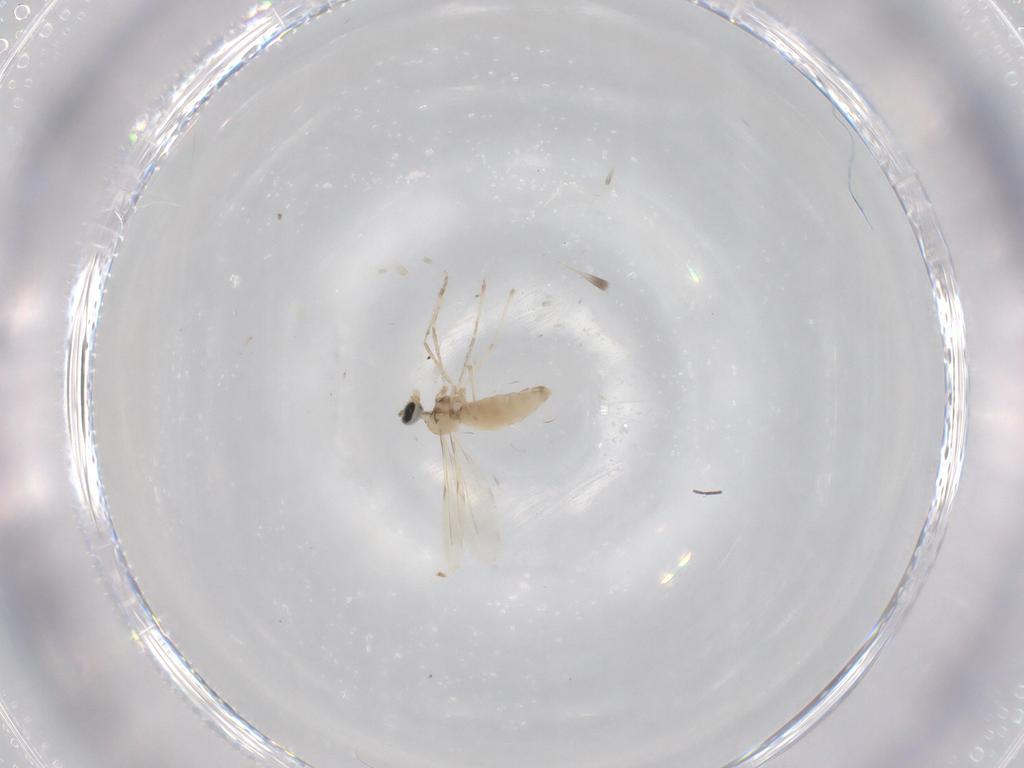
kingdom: Animalia
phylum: Arthropoda
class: Insecta
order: Diptera
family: Cecidomyiidae
